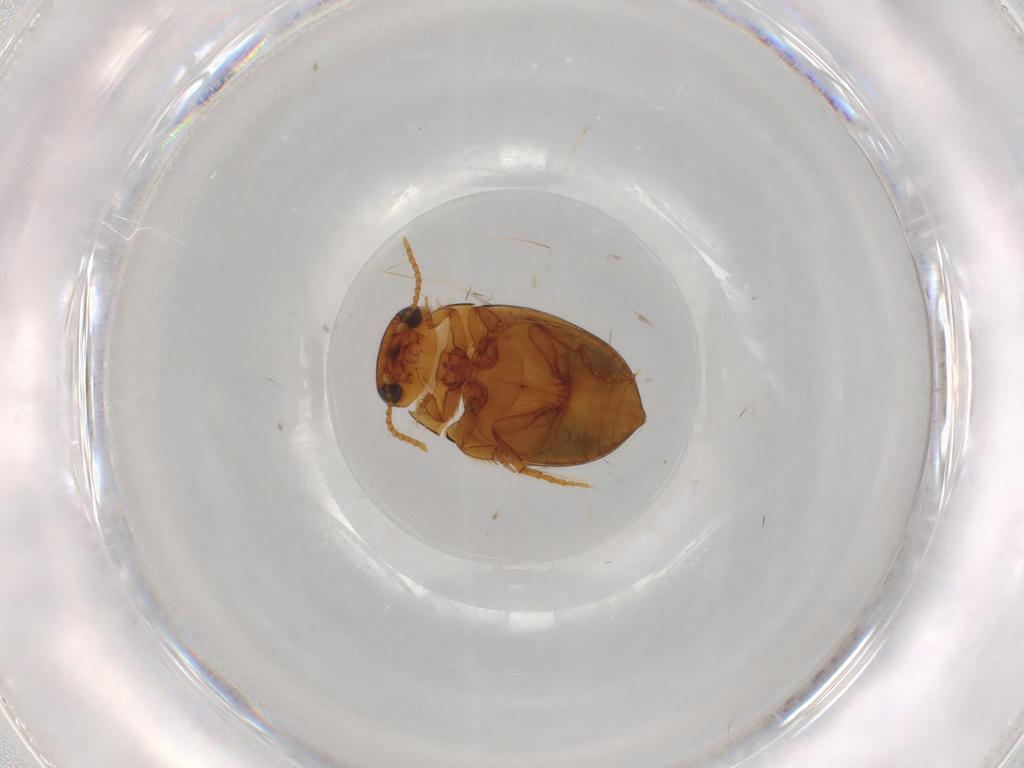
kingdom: Animalia
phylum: Arthropoda
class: Insecta
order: Coleoptera
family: Dytiscidae
